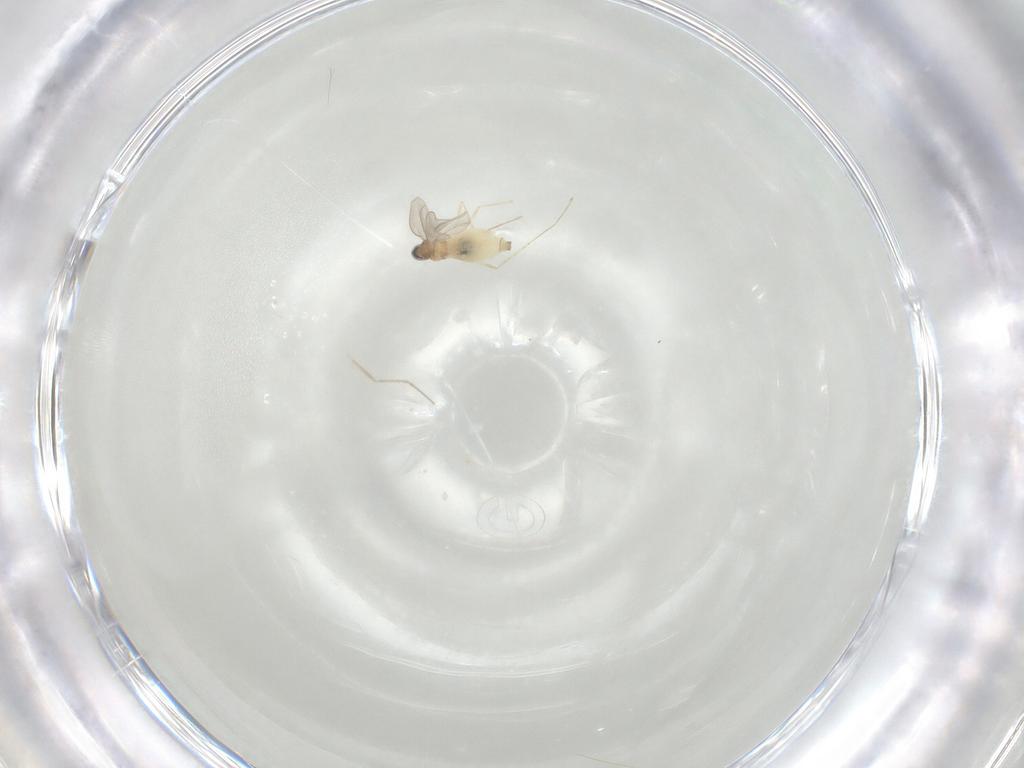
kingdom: Animalia
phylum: Arthropoda
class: Insecta
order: Diptera
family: Cecidomyiidae
